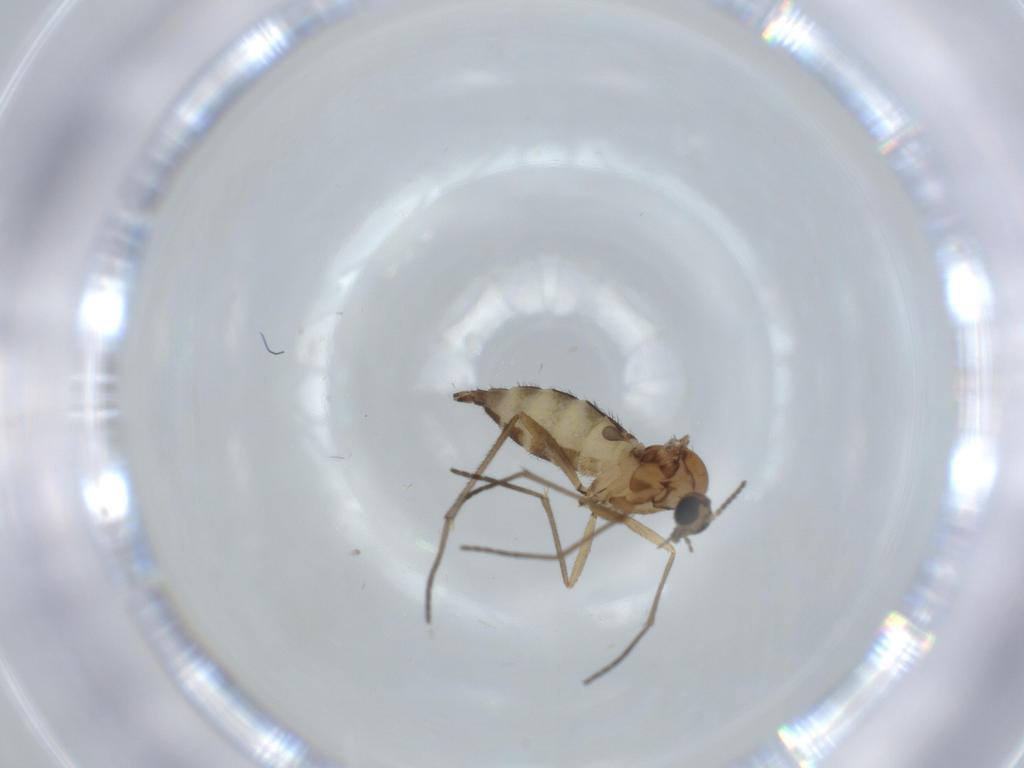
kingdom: Animalia
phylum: Arthropoda
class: Insecta
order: Diptera
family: Sciaridae
